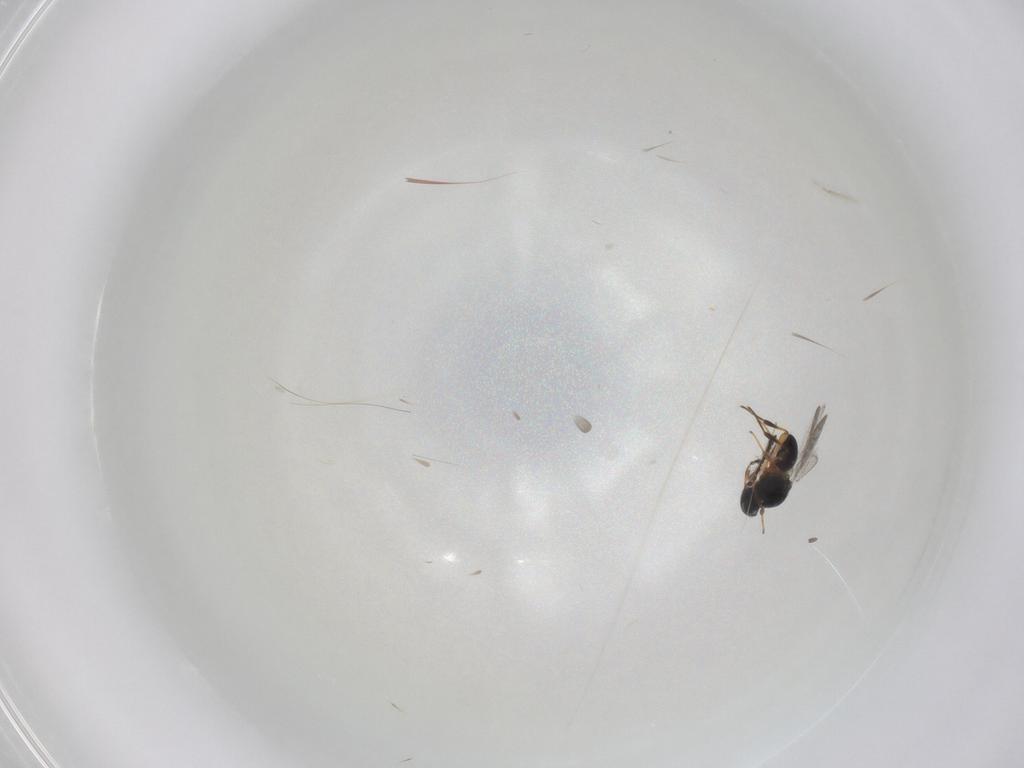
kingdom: Animalia
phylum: Arthropoda
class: Insecta
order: Hymenoptera
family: Platygastridae
